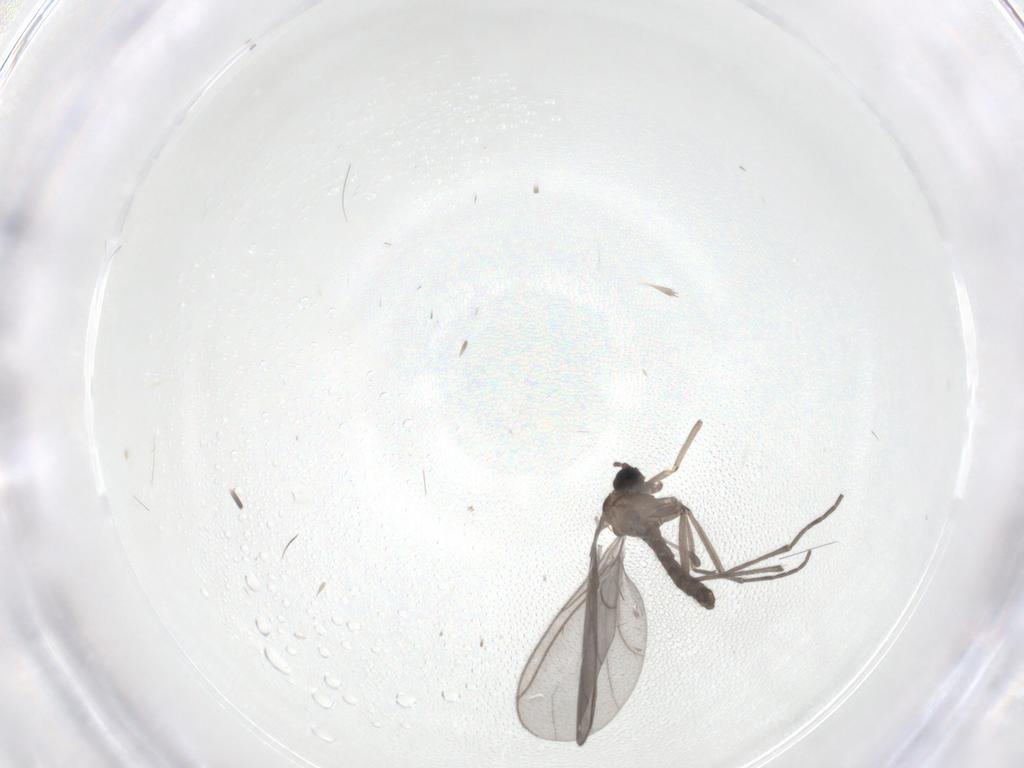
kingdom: Animalia
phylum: Arthropoda
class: Insecta
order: Diptera
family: Sciaridae
